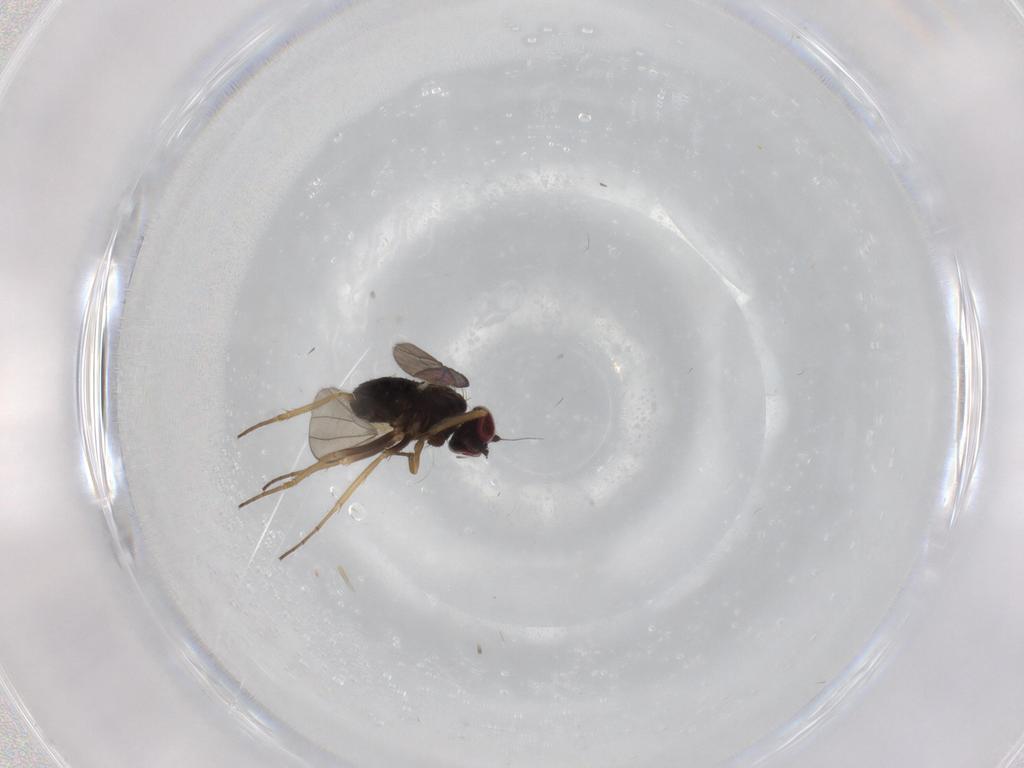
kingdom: Animalia
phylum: Arthropoda
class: Insecta
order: Diptera
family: Dolichopodidae
